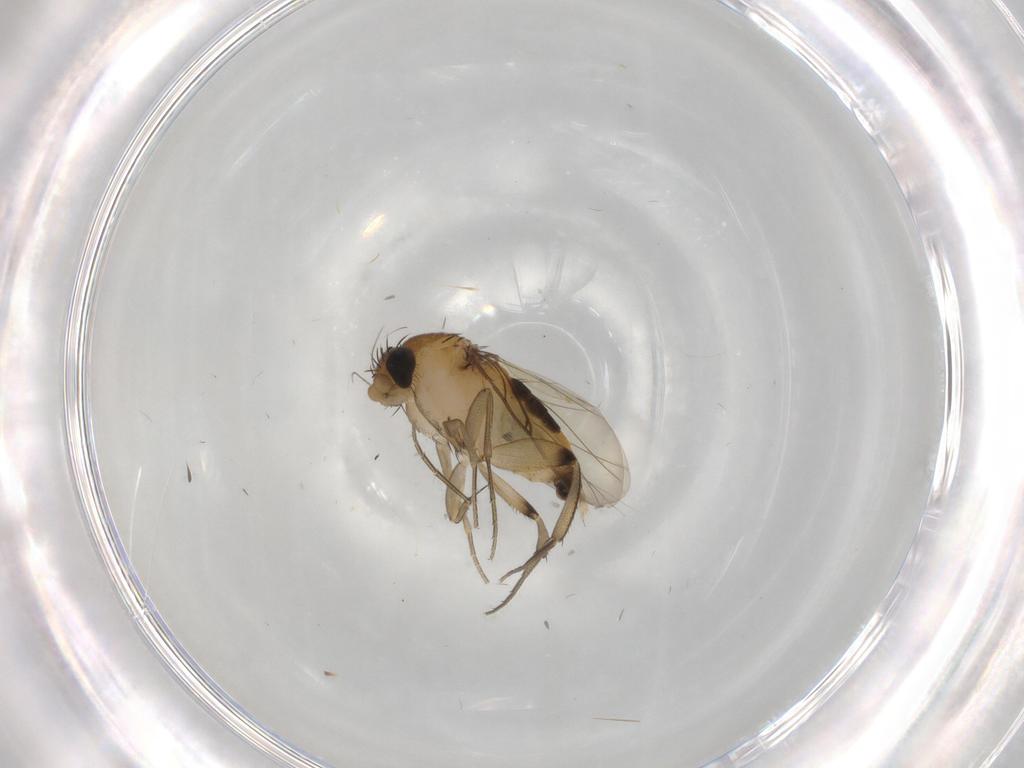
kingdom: Animalia
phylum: Arthropoda
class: Insecta
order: Diptera
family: Phoridae
